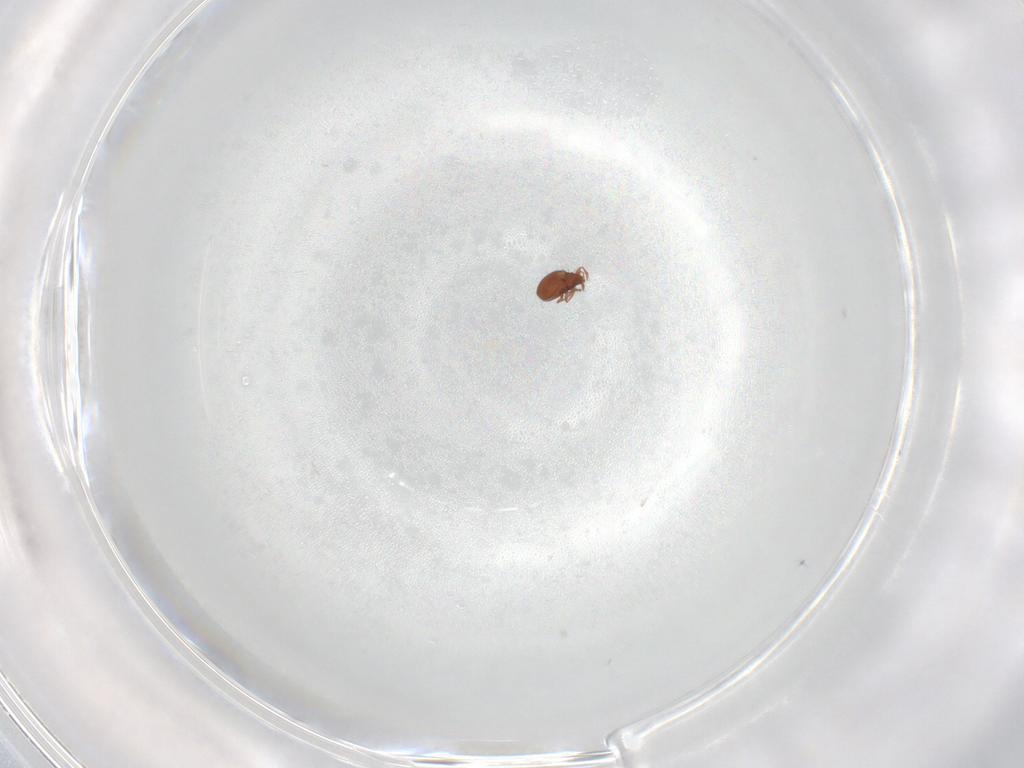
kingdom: Animalia
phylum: Arthropoda
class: Arachnida
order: Sarcoptiformes
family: Oribatulidae
